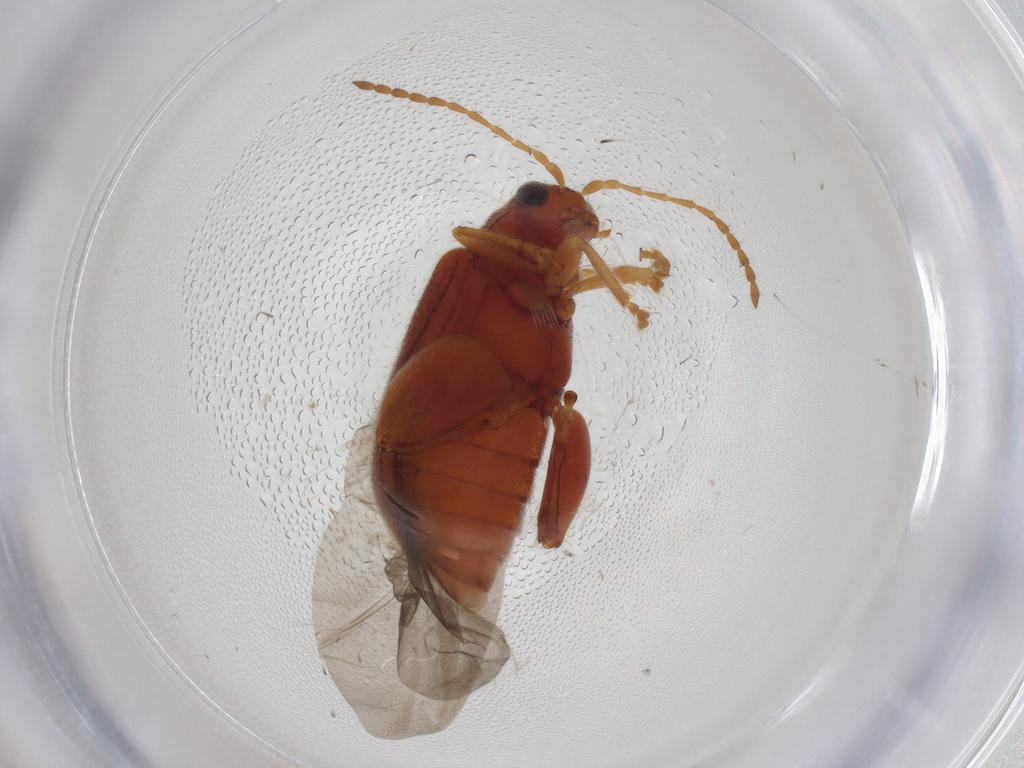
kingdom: Animalia
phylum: Arthropoda
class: Insecta
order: Coleoptera
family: Chrysomelidae
